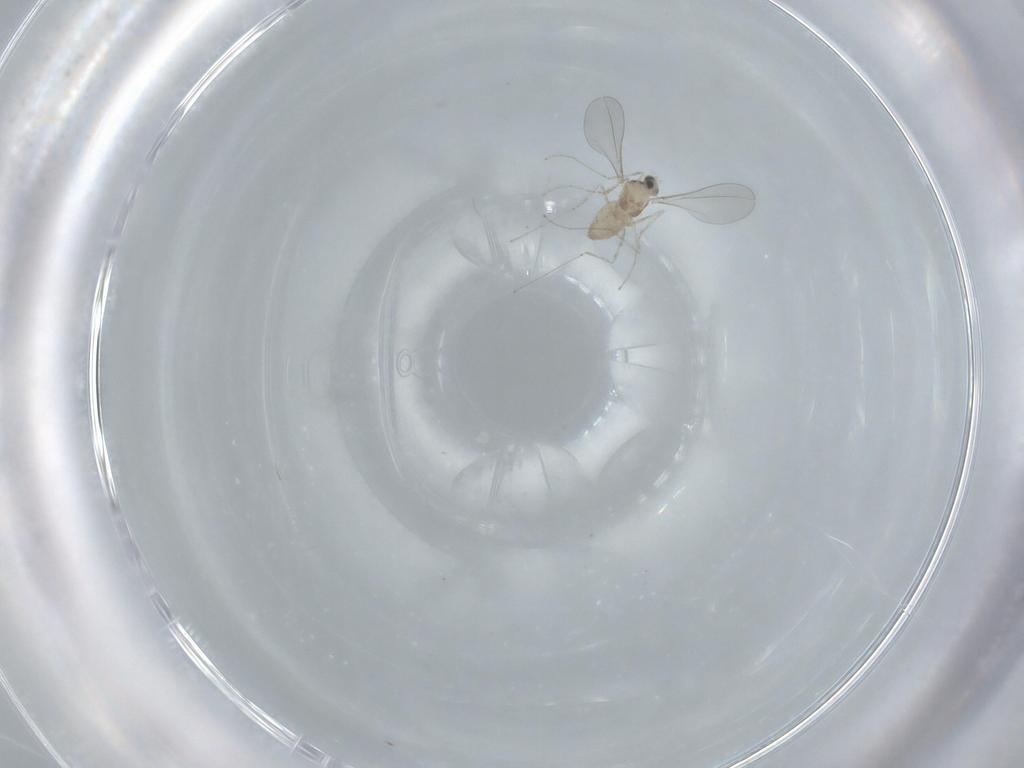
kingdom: Animalia
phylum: Arthropoda
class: Insecta
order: Diptera
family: Cecidomyiidae
